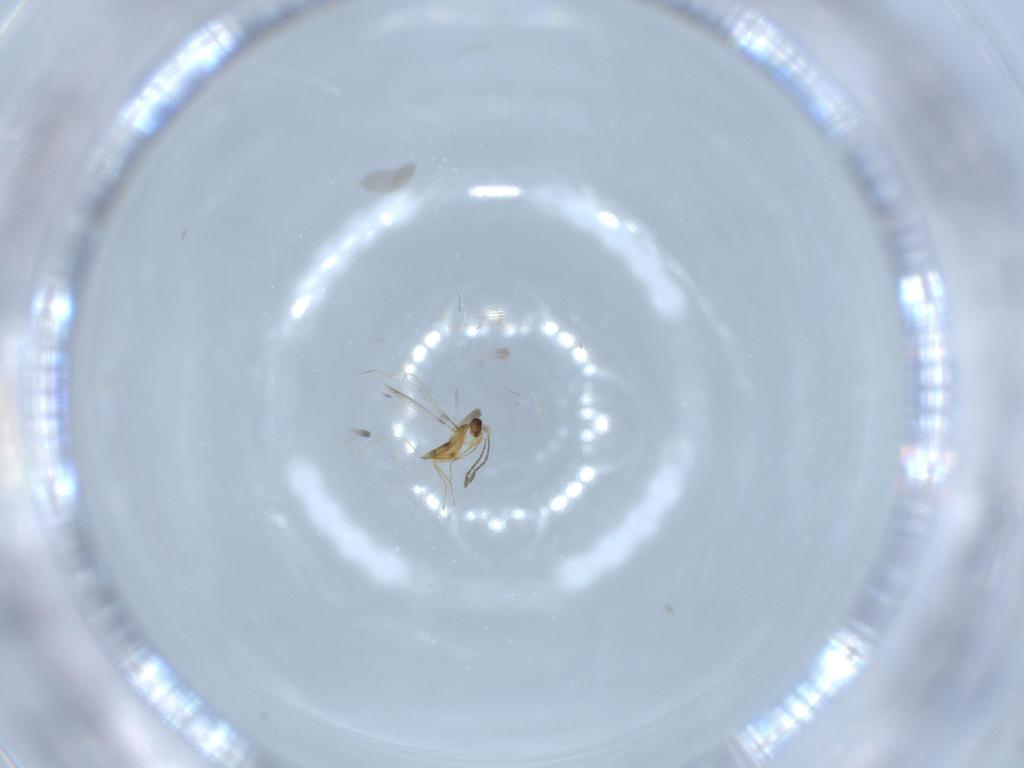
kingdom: Animalia
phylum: Arthropoda
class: Insecta
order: Hymenoptera
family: Mymaridae
